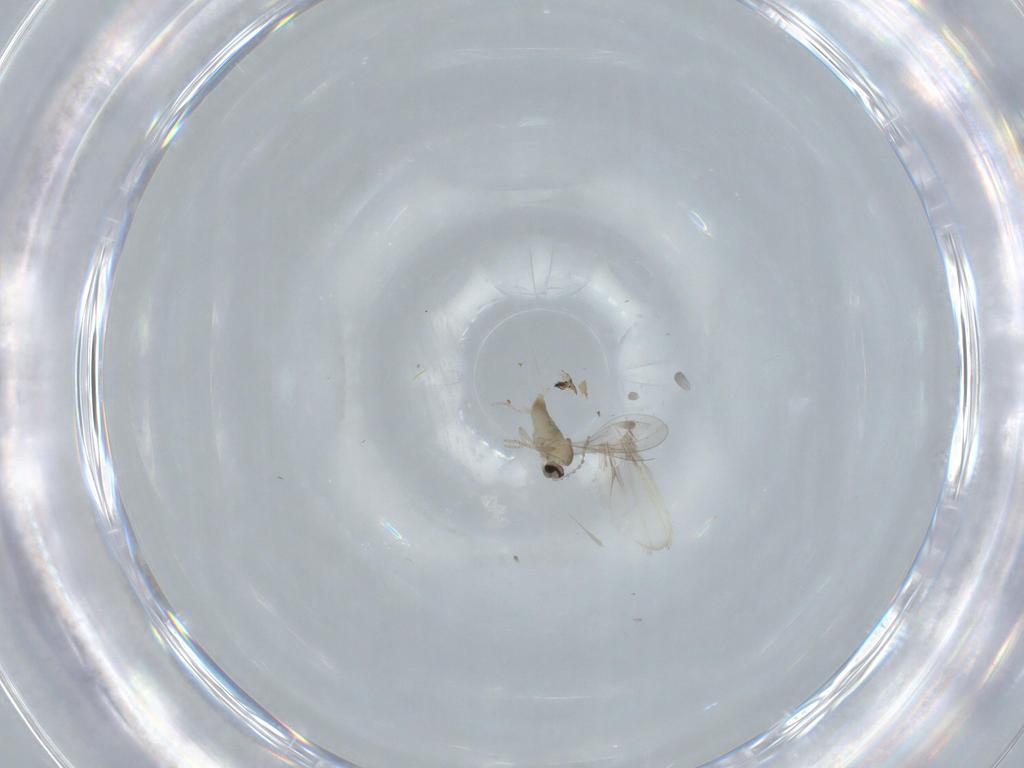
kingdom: Animalia
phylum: Arthropoda
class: Insecta
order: Diptera
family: Cecidomyiidae
